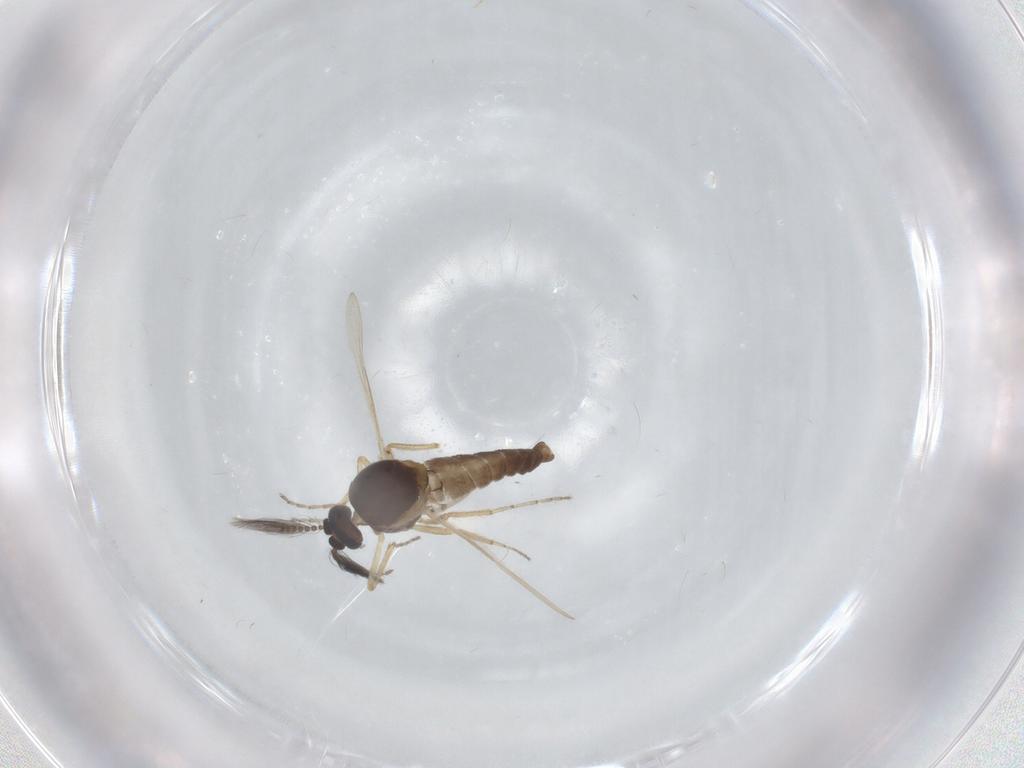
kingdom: Animalia
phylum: Arthropoda
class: Insecta
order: Diptera
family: Ceratopogonidae
